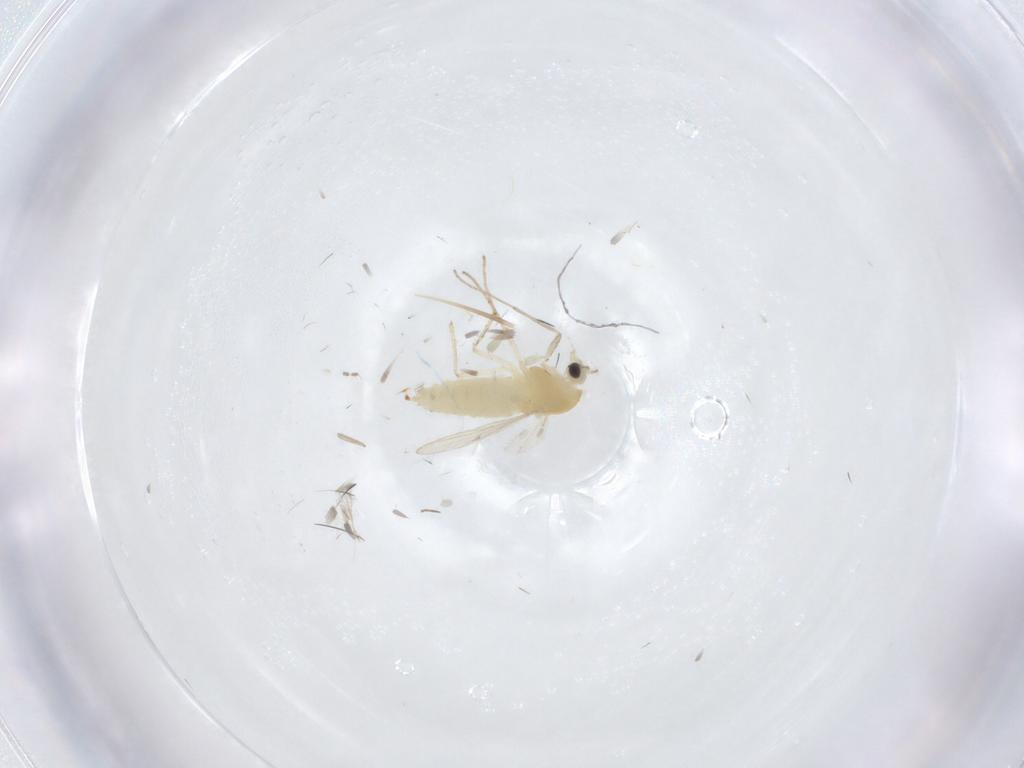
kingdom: Animalia
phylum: Arthropoda
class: Insecta
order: Diptera
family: Chironomidae
